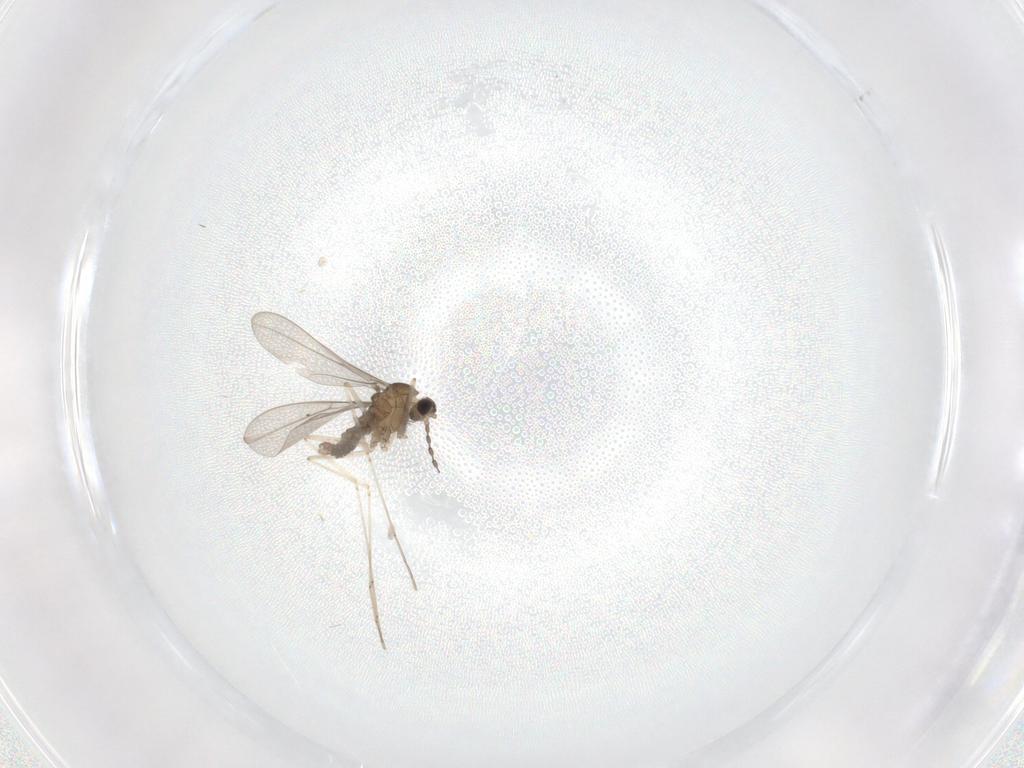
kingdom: Animalia
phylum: Arthropoda
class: Insecta
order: Diptera
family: Cecidomyiidae
